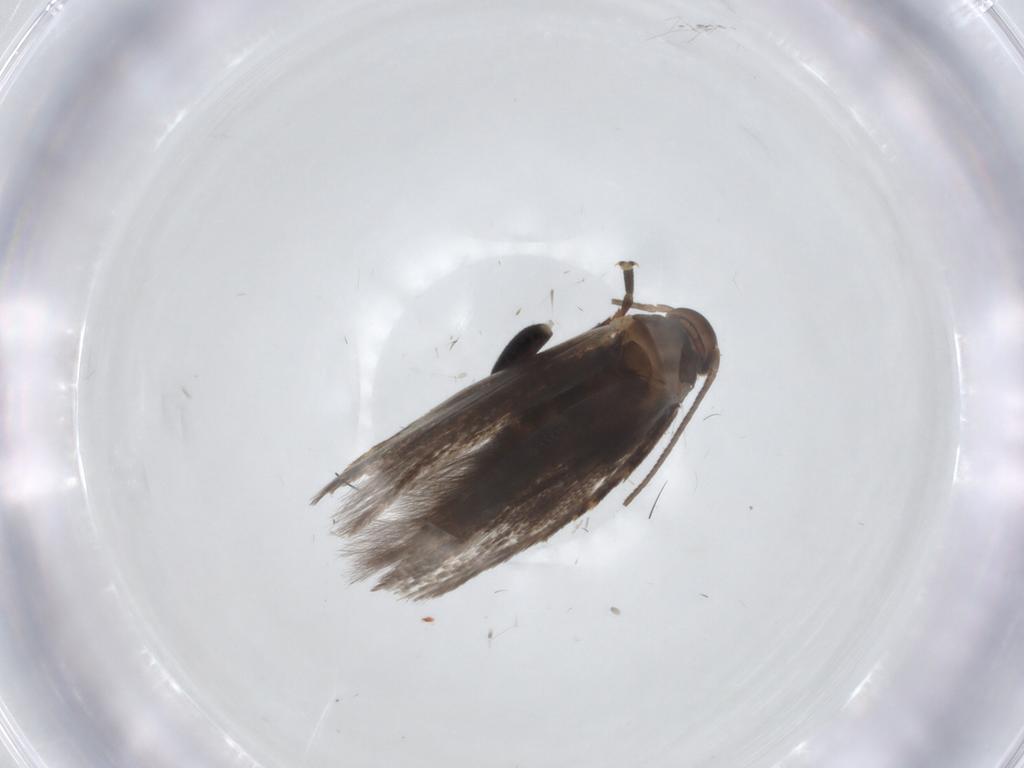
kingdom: Animalia
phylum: Arthropoda
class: Insecta
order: Lepidoptera
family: Elachistidae
